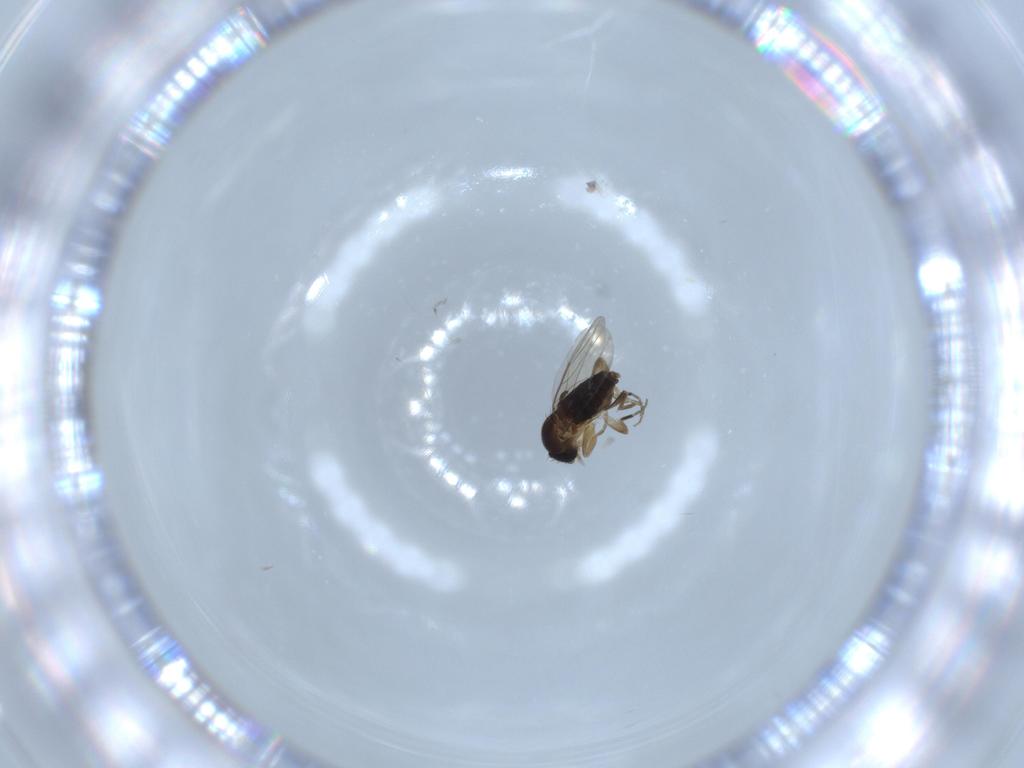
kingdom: Animalia
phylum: Arthropoda
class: Insecta
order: Diptera
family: Phoridae
